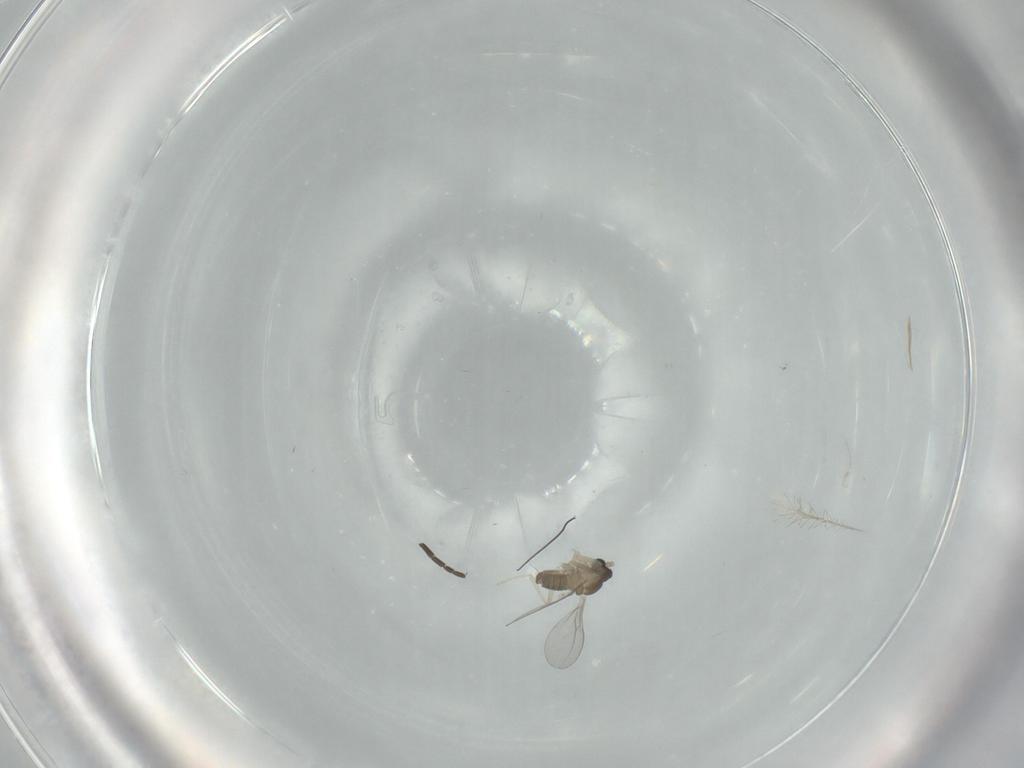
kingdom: Animalia
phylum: Arthropoda
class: Insecta
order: Diptera
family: Cecidomyiidae
